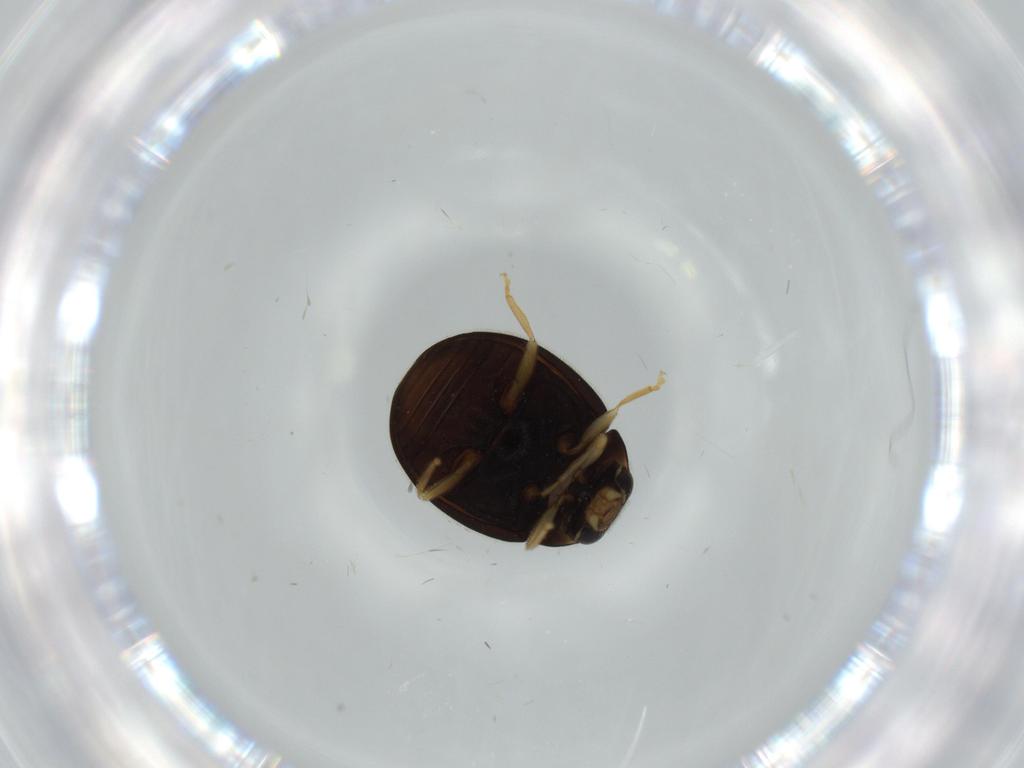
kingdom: Animalia
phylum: Arthropoda
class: Insecta
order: Coleoptera
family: Coccinellidae
